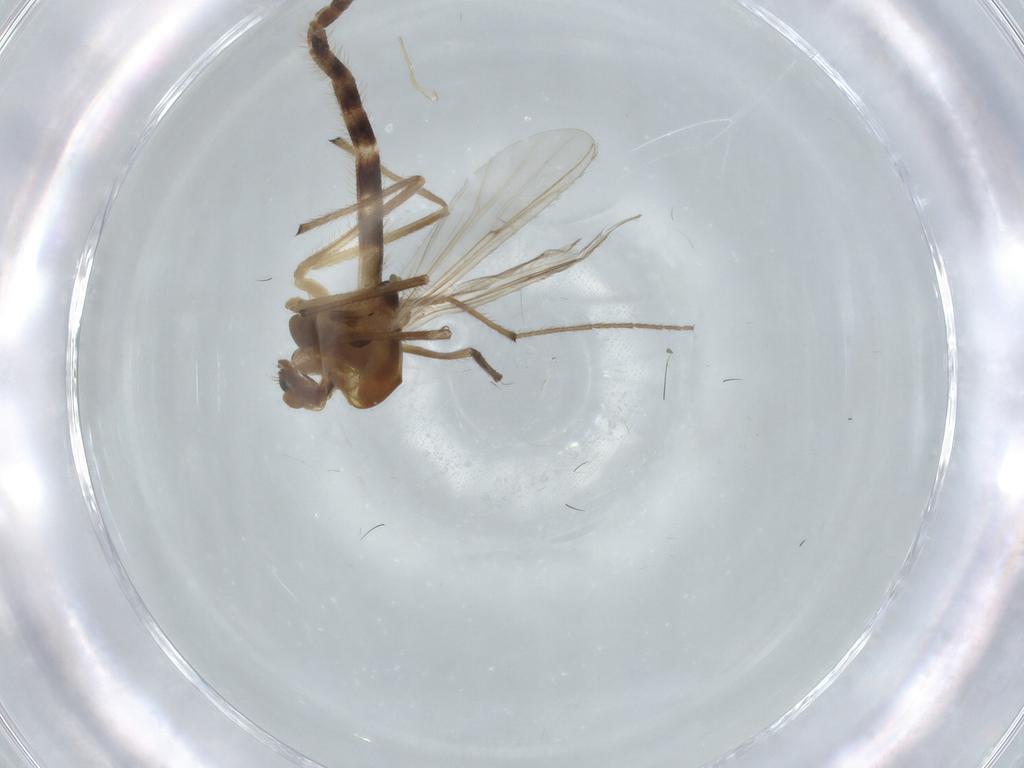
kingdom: Animalia
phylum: Arthropoda
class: Insecta
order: Diptera
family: Chironomidae
